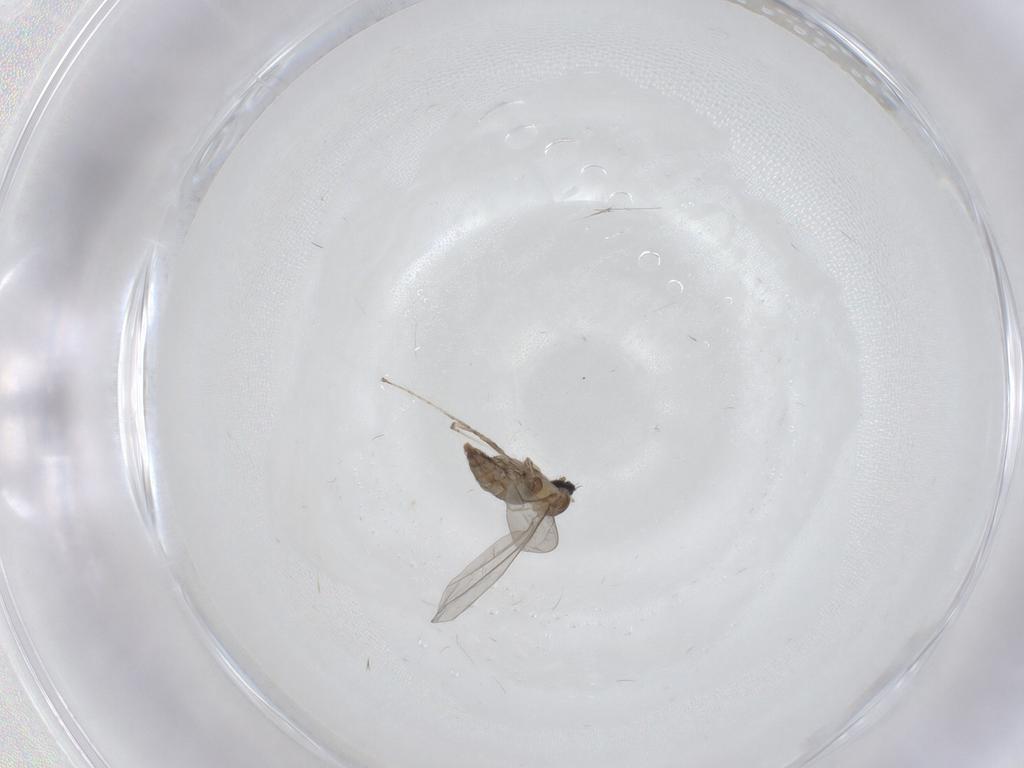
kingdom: Animalia
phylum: Arthropoda
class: Insecta
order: Diptera
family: Cecidomyiidae
